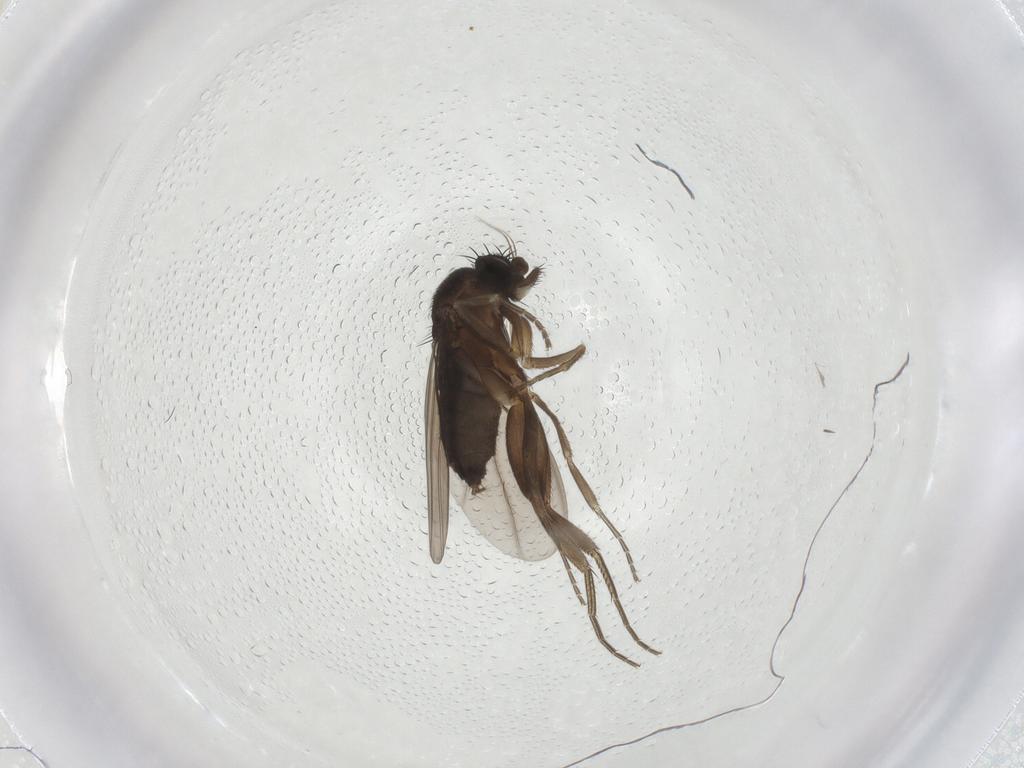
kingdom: Animalia
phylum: Arthropoda
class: Insecta
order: Diptera
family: Phoridae
